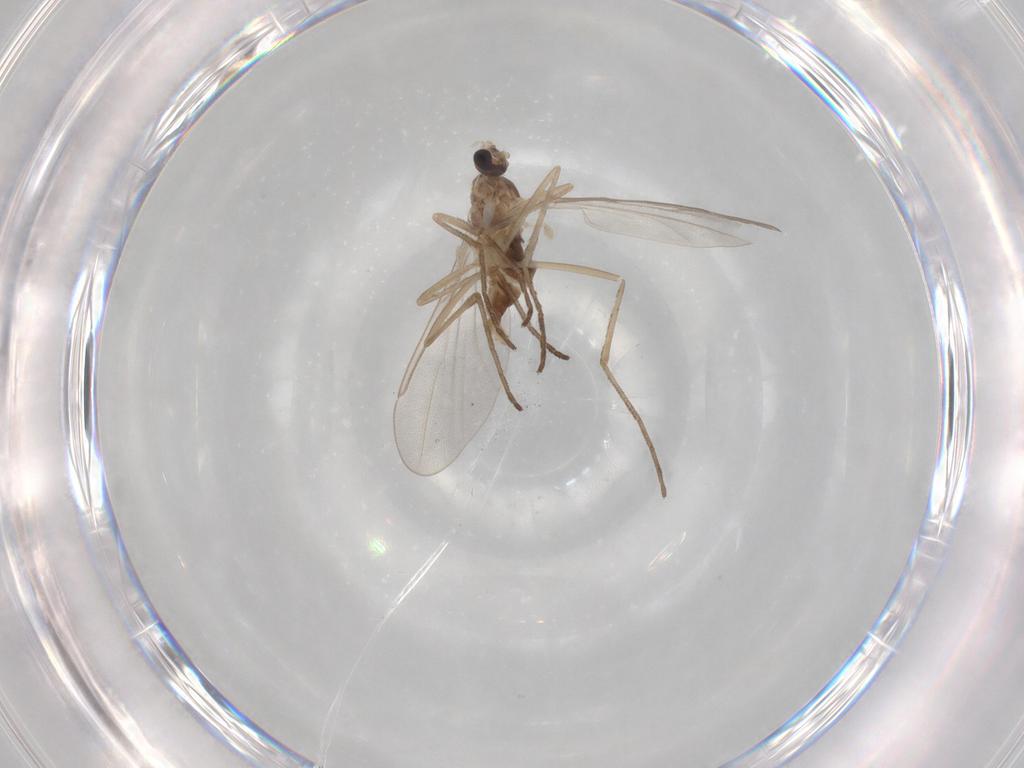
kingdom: Animalia
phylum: Arthropoda
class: Insecta
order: Diptera
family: Cecidomyiidae
